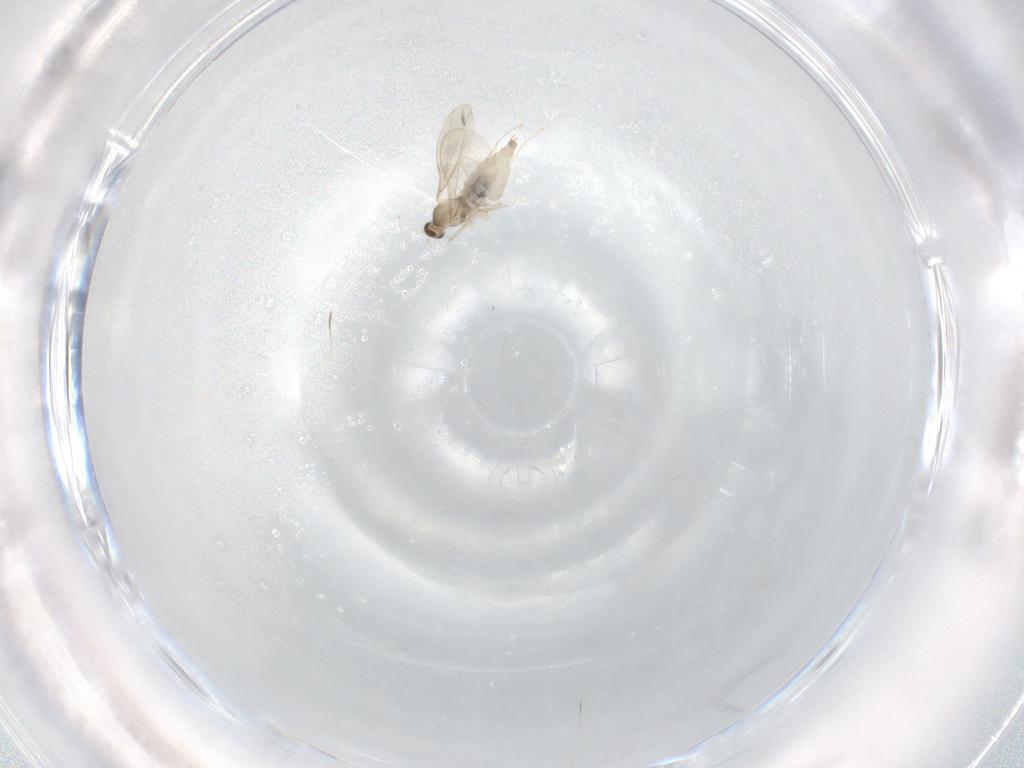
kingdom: Animalia
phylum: Arthropoda
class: Insecta
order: Diptera
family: Cecidomyiidae
